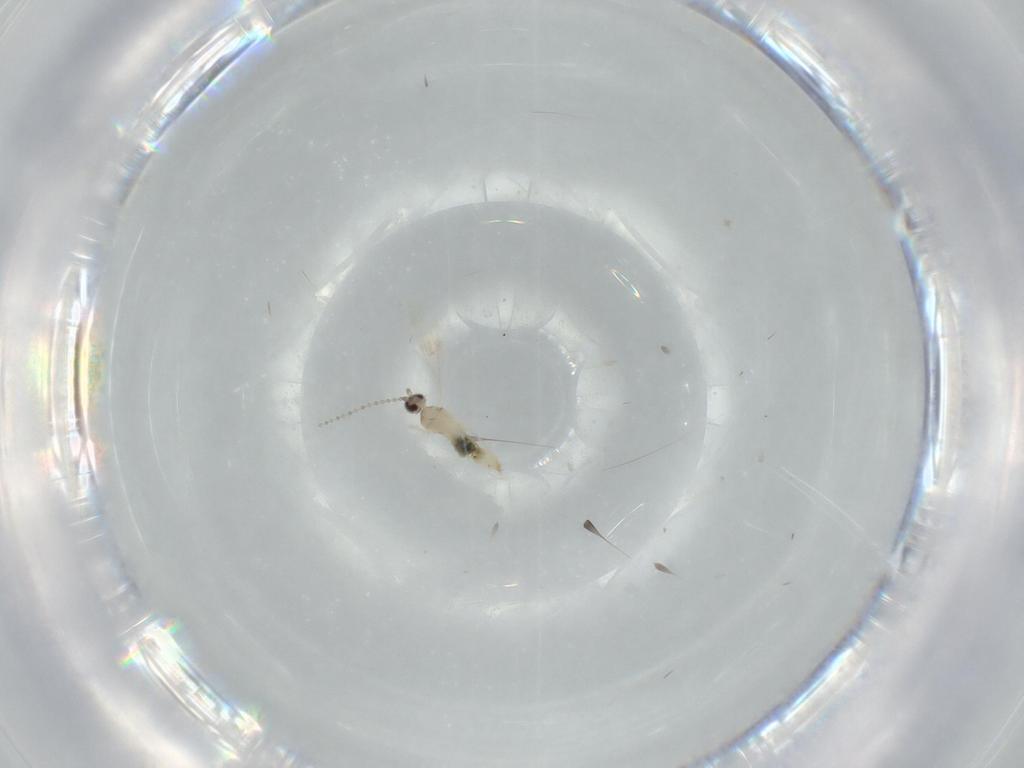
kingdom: Animalia
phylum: Arthropoda
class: Insecta
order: Diptera
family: Cecidomyiidae
